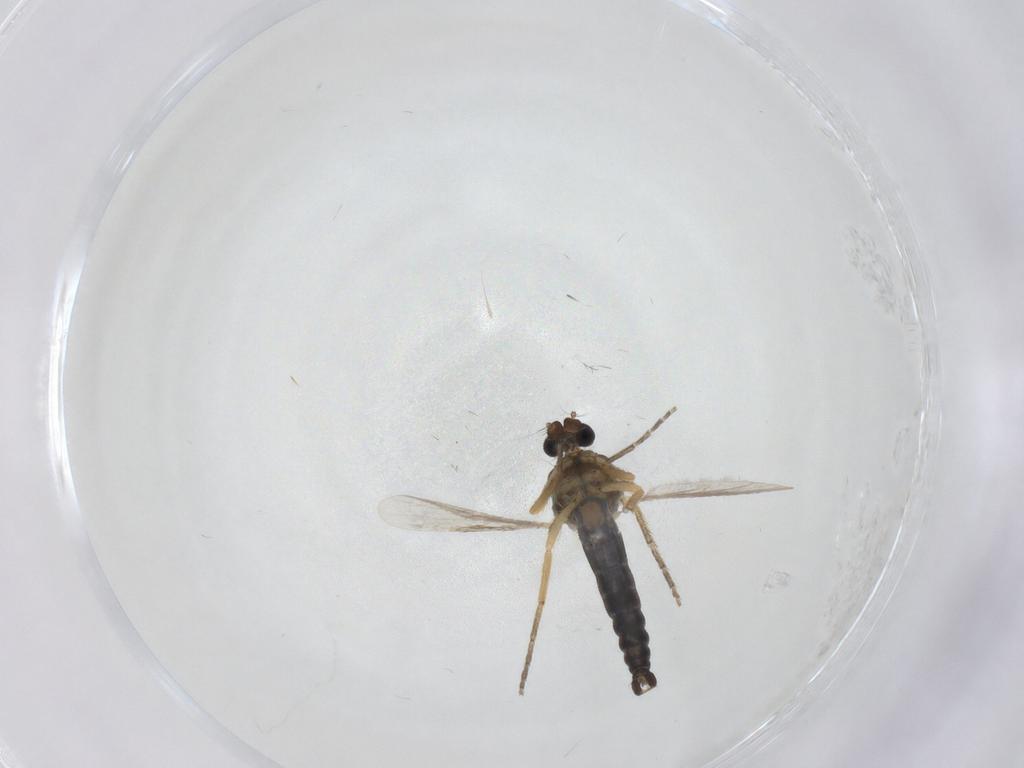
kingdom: Animalia
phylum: Arthropoda
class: Insecta
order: Diptera
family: Ceratopogonidae
